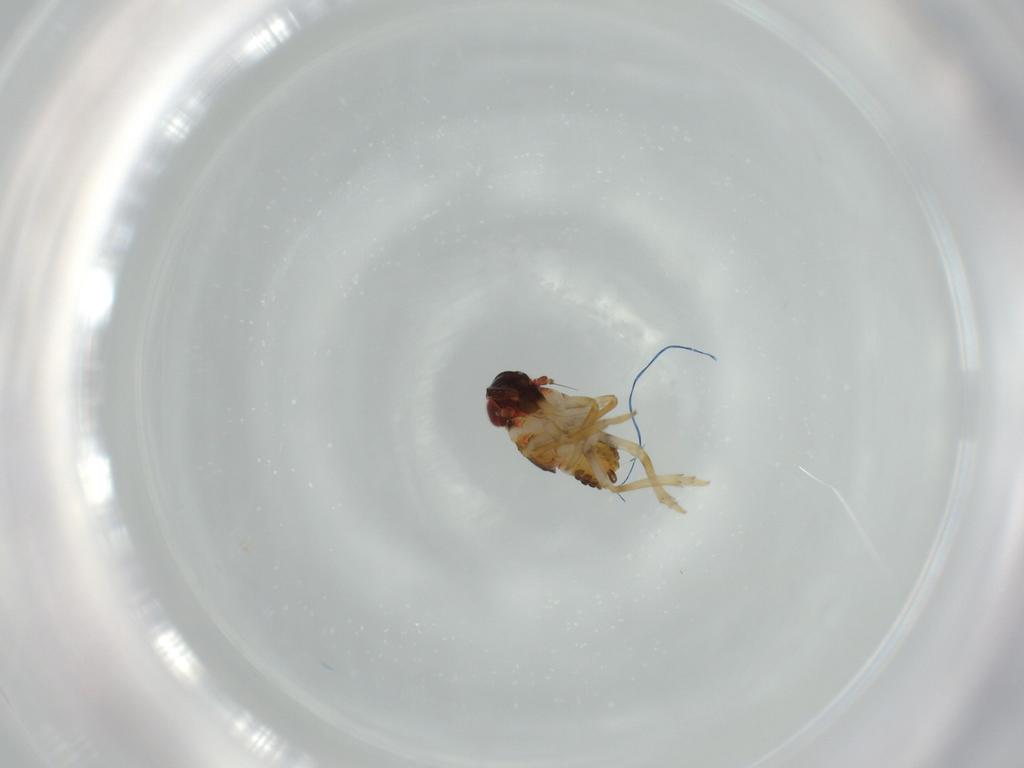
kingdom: Animalia
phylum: Arthropoda
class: Insecta
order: Hemiptera
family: Issidae
